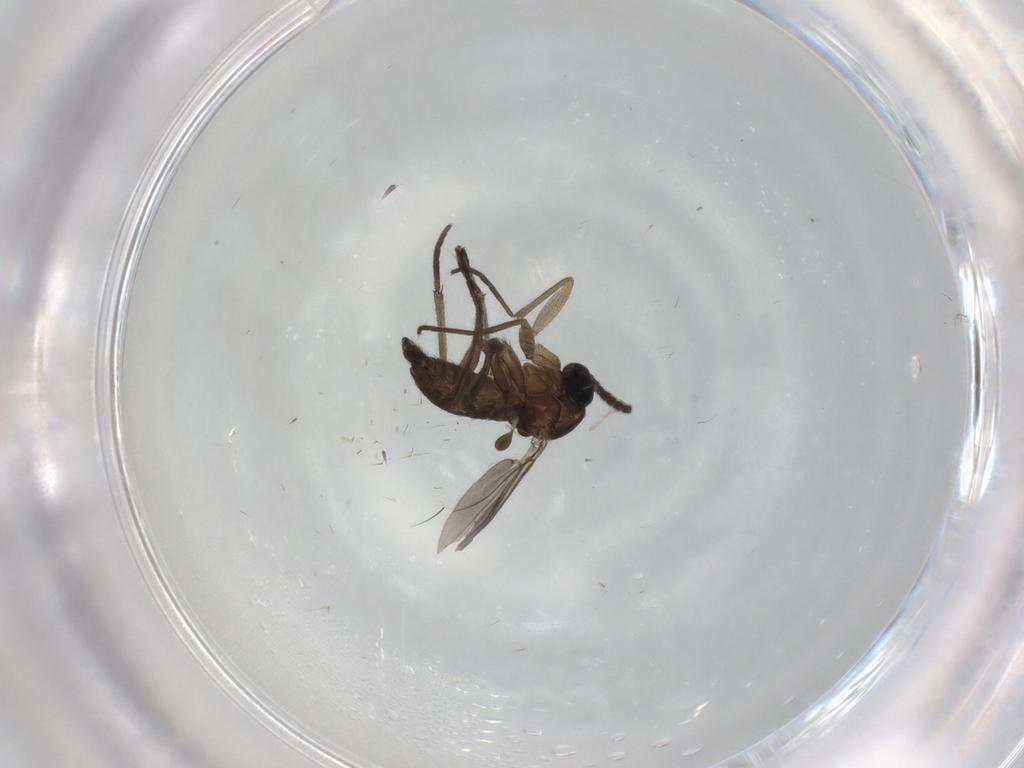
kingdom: Animalia
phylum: Arthropoda
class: Insecta
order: Diptera
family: Sciaridae
